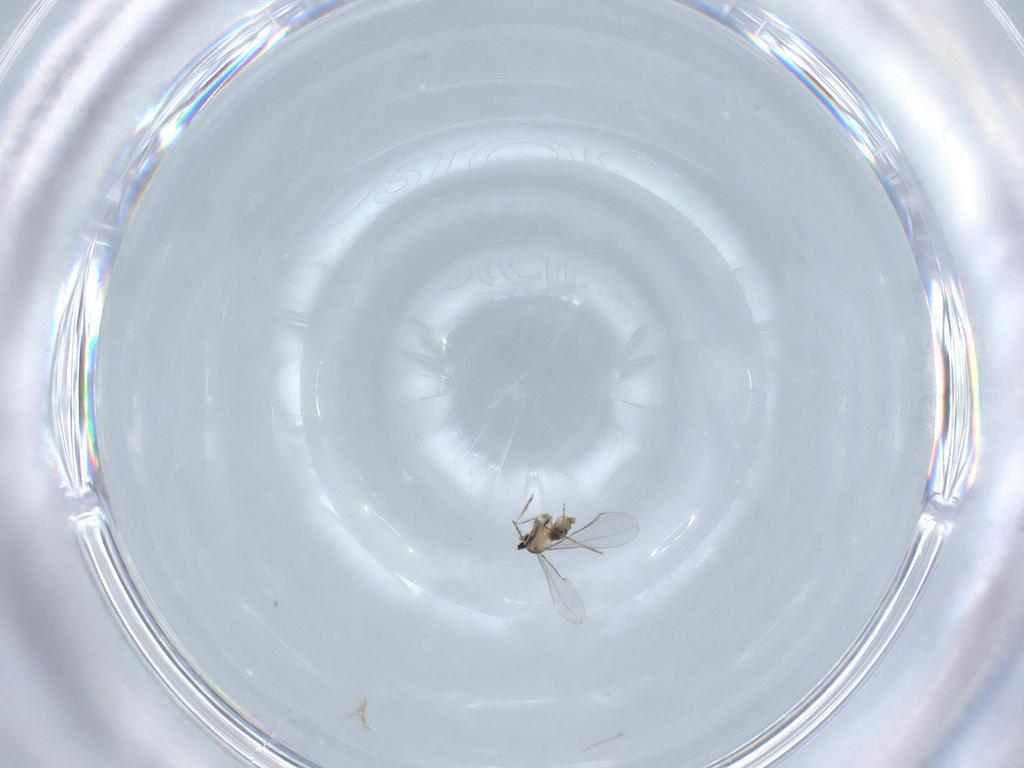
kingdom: Animalia
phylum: Arthropoda
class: Insecta
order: Diptera
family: Cecidomyiidae
